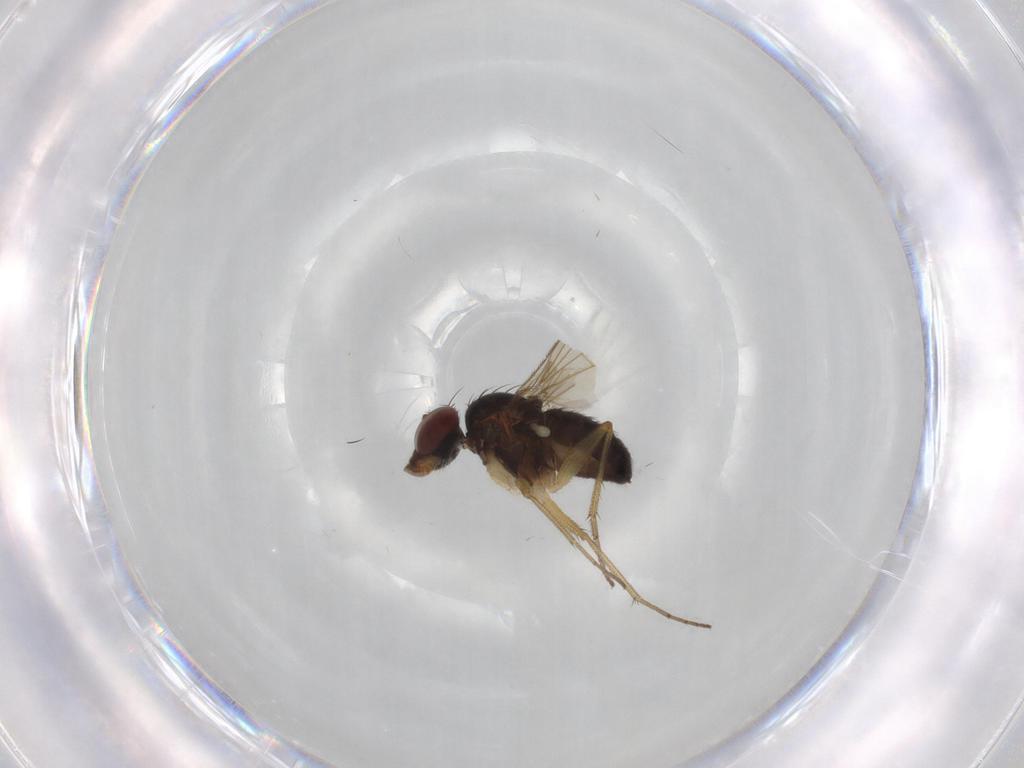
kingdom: Animalia
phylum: Arthropoda
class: Insecta
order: Diptera
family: Dolichopodidae
